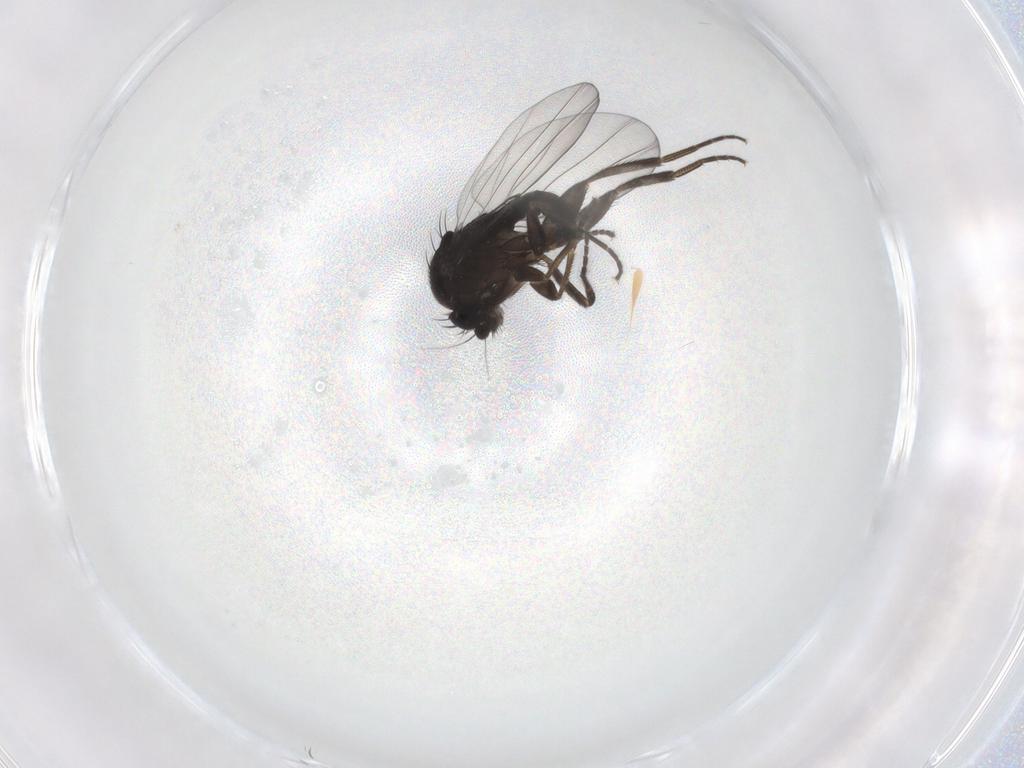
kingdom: Animalia
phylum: Arthropoda
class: Insecta
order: Diptera
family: Phoridae
